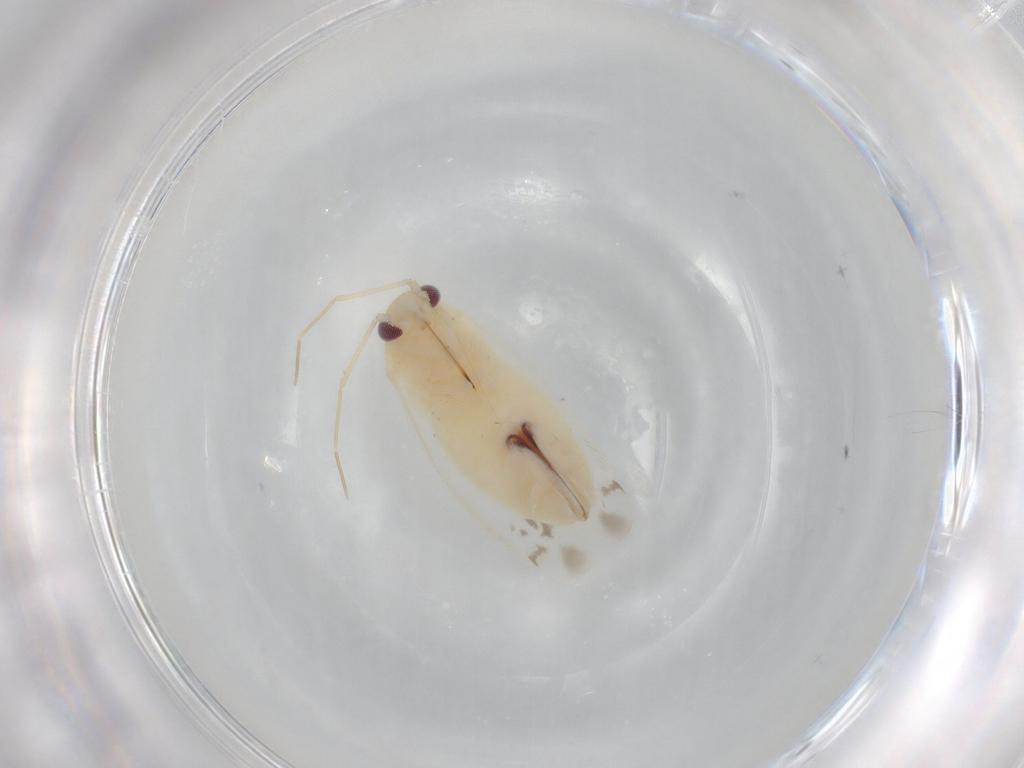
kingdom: Animalia
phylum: Arthropoda
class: Insecta
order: Hemiptera
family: Miridae
